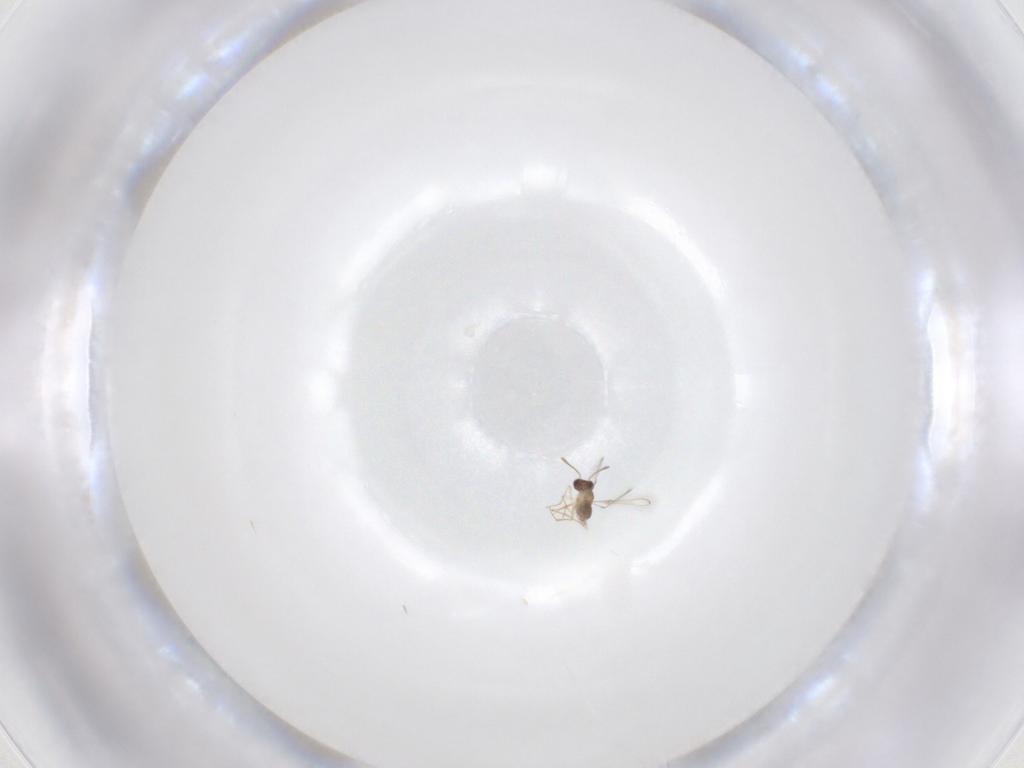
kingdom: Animalia
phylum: Arthropoda
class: Insecta
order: Hymenoptera
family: Mymaridae
